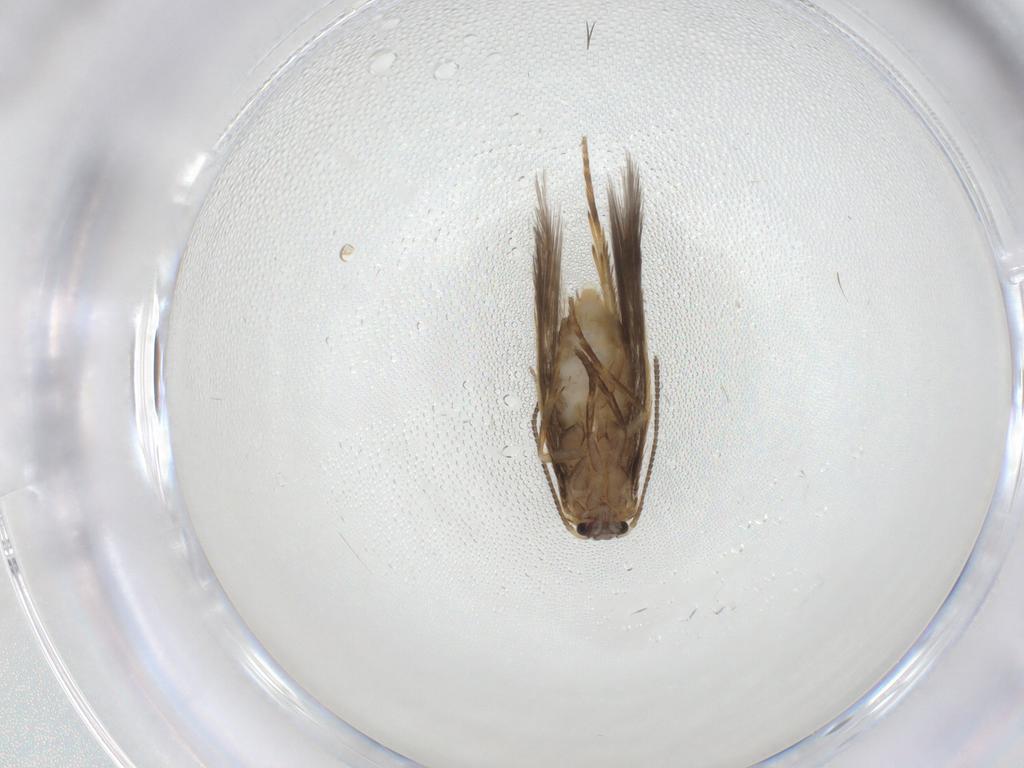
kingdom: Animalia
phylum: Arthropoda
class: Insecta
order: Lepidoptera
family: Nepticulidae
